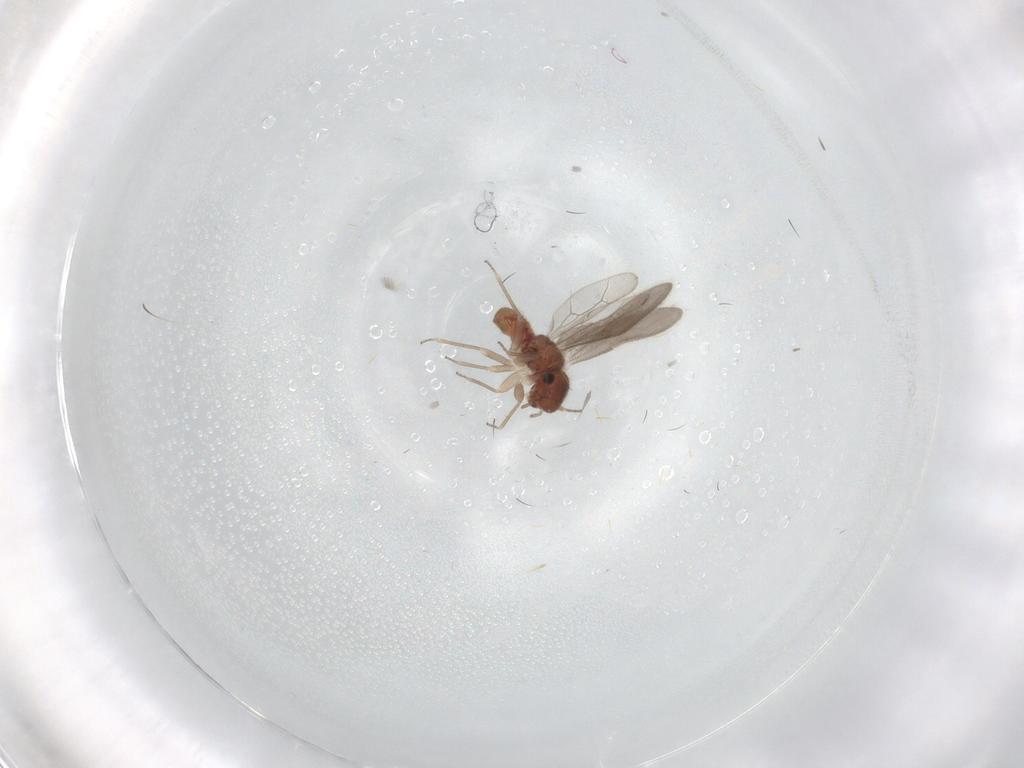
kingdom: Animalia
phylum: Arthropoda
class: Insecta
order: Psocodea
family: Archipsocidae
